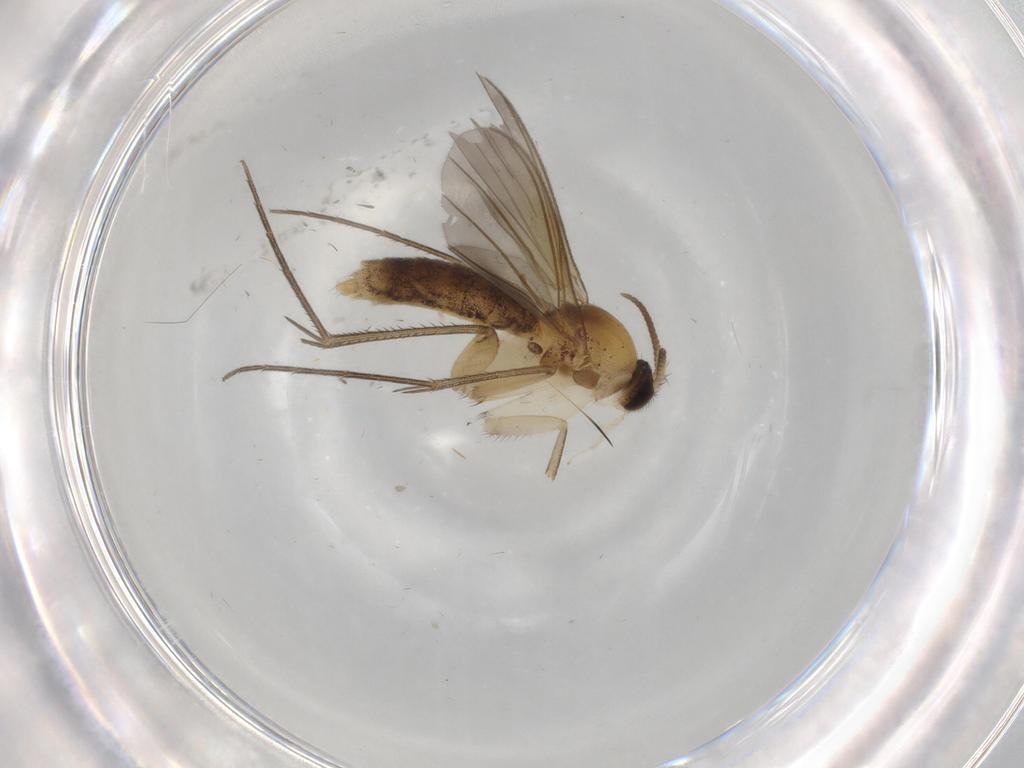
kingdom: Animalia
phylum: Arthropoda
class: Insecta
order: Diptera
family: Mycetophilidae
